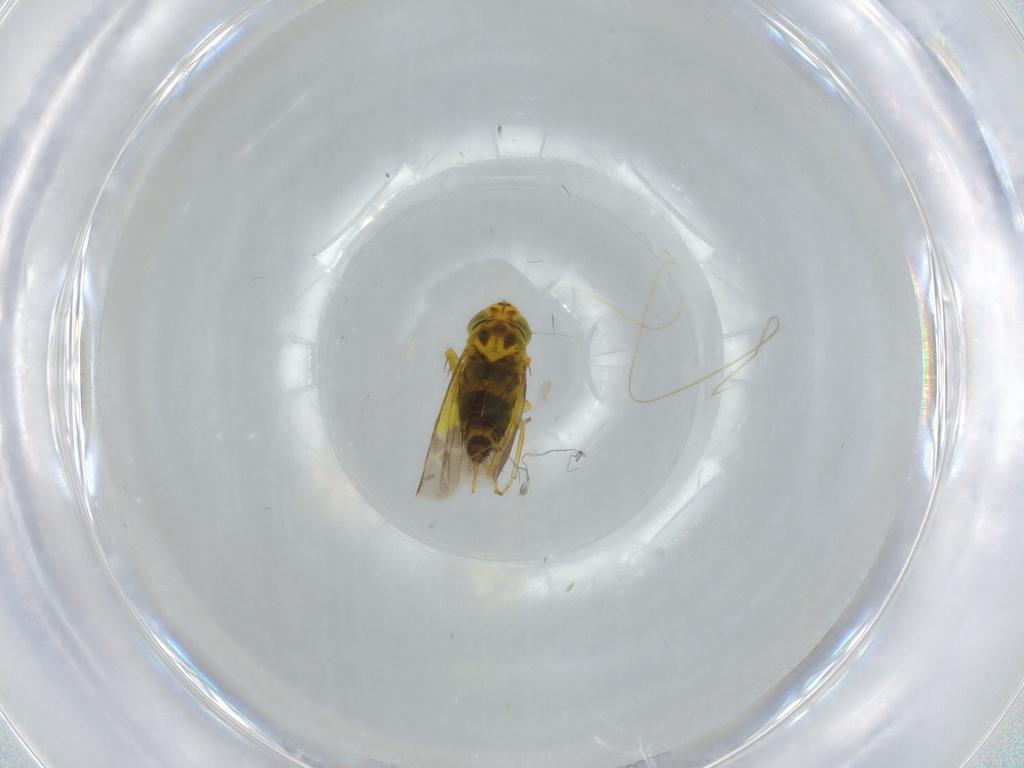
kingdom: Animalia
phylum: Arthropoda
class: Insecta
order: Hemiptera
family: Cicadellidae
